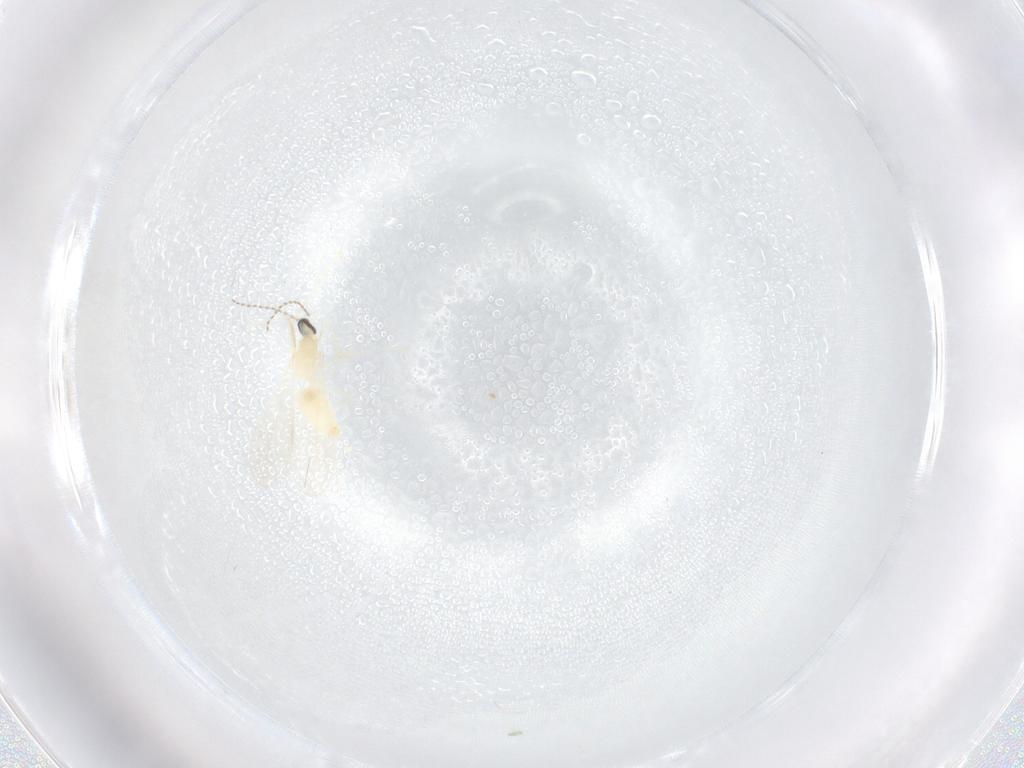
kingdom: Animalia
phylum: Arthropoda
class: Insecta
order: Diptera
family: Cecidomyiidae
